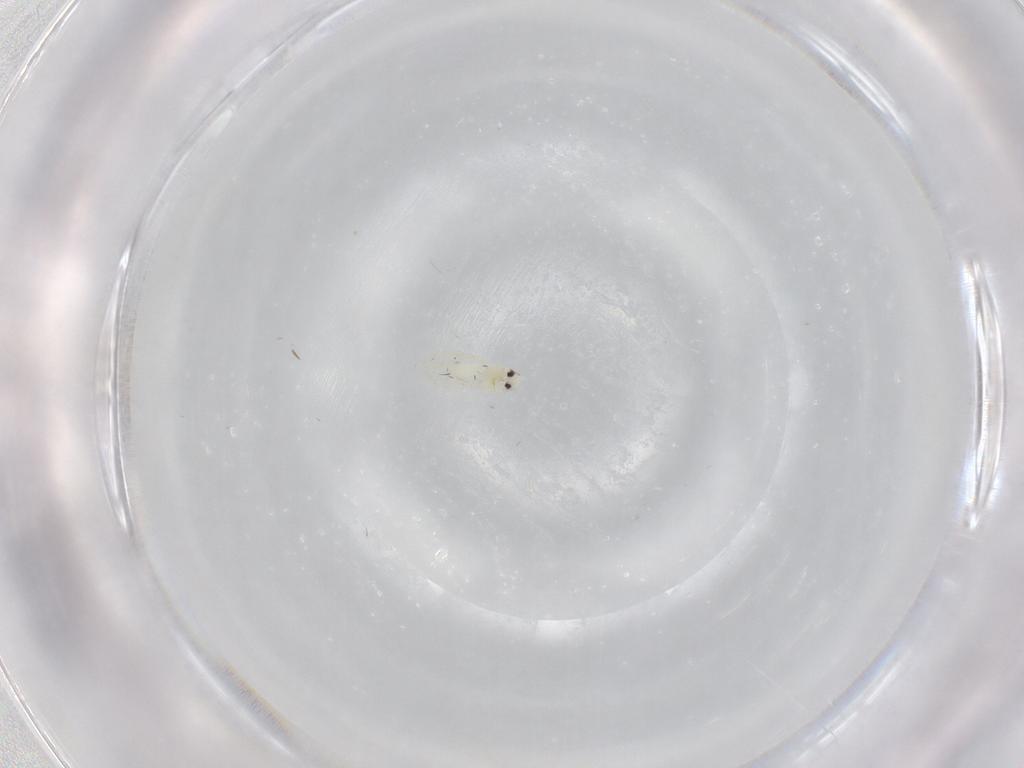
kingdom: Animalia
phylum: Arthropoda
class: Insecta
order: Hemiptera
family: Aleyrodidae
